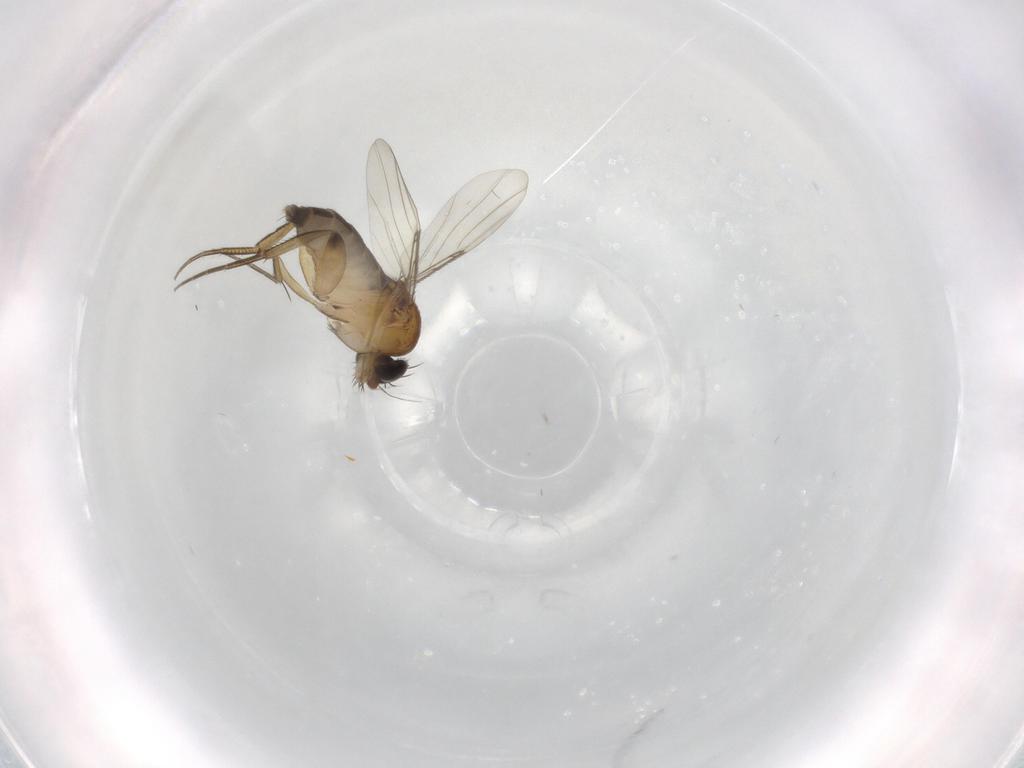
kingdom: Animalia
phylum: Arthropoda
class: Insecta
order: Diptera
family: Phoridae
